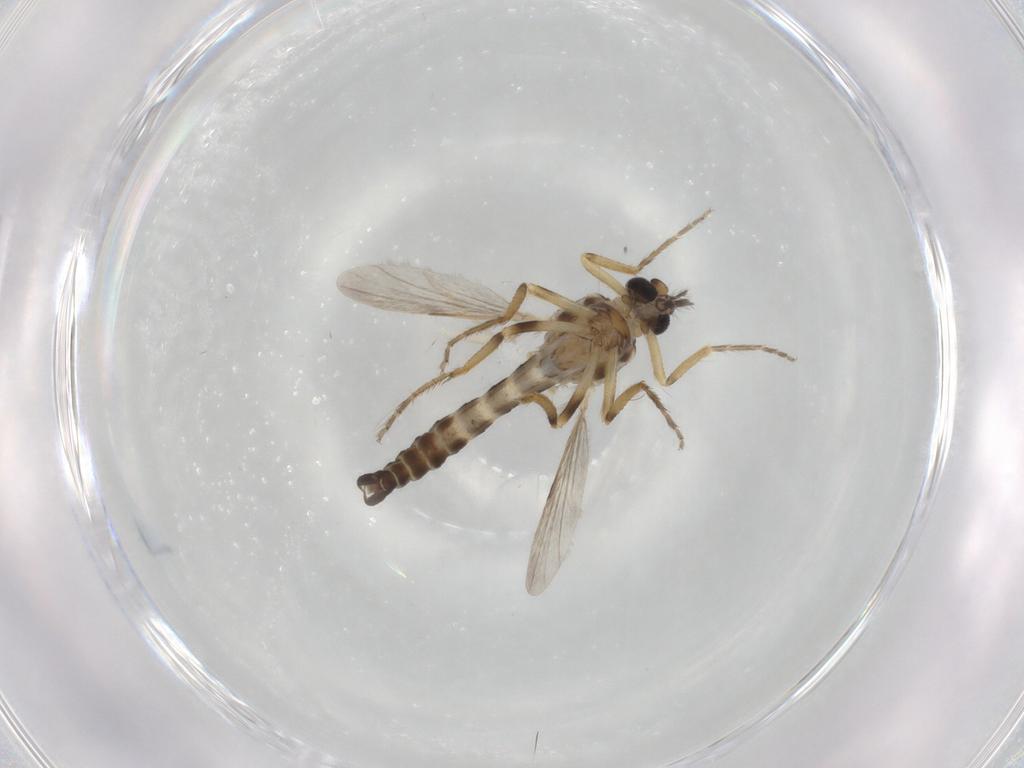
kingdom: Animalia
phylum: Arthropoda
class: Insecta
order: Diptera
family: Ceratopogonidae
